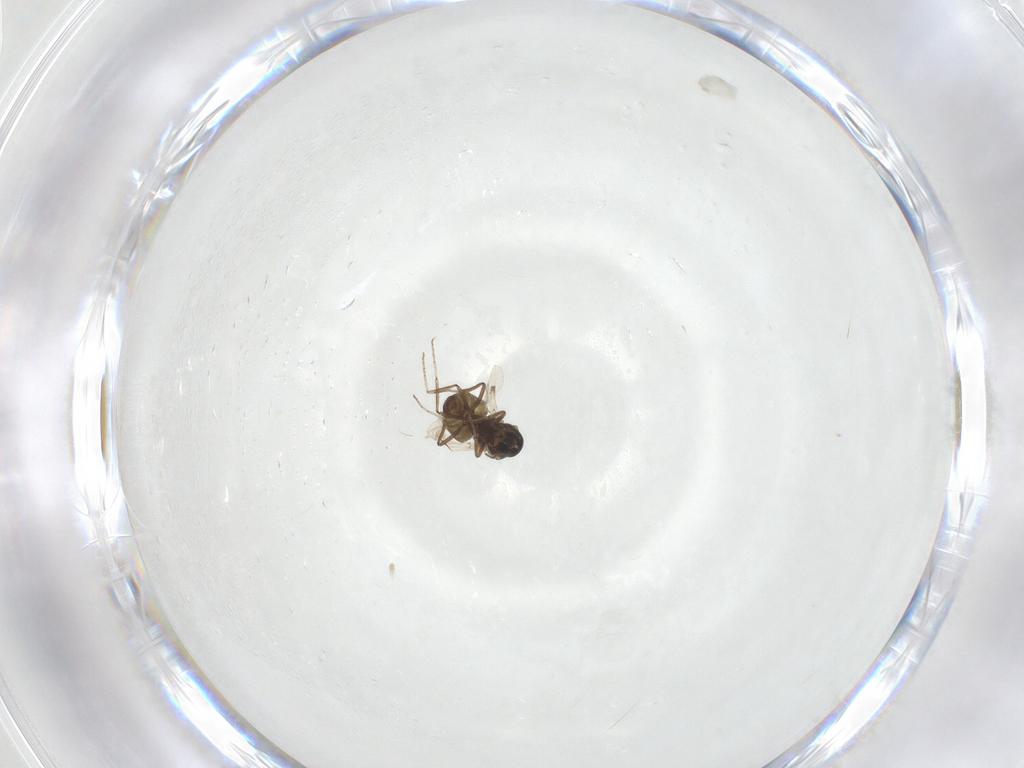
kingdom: Animalia
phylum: Arthropoda
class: Insecta
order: Diptera
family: Ceratopogonidae
